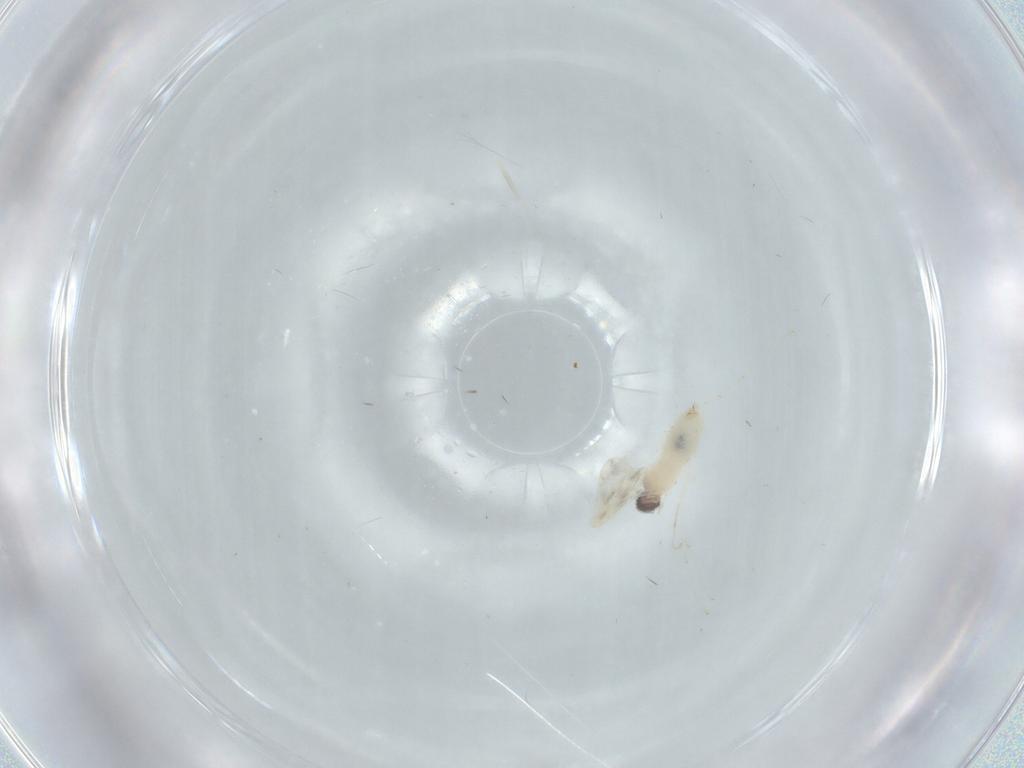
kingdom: Animalia
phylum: Arthropoda
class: Insecta
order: Diptera
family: Cecidomyiidae
